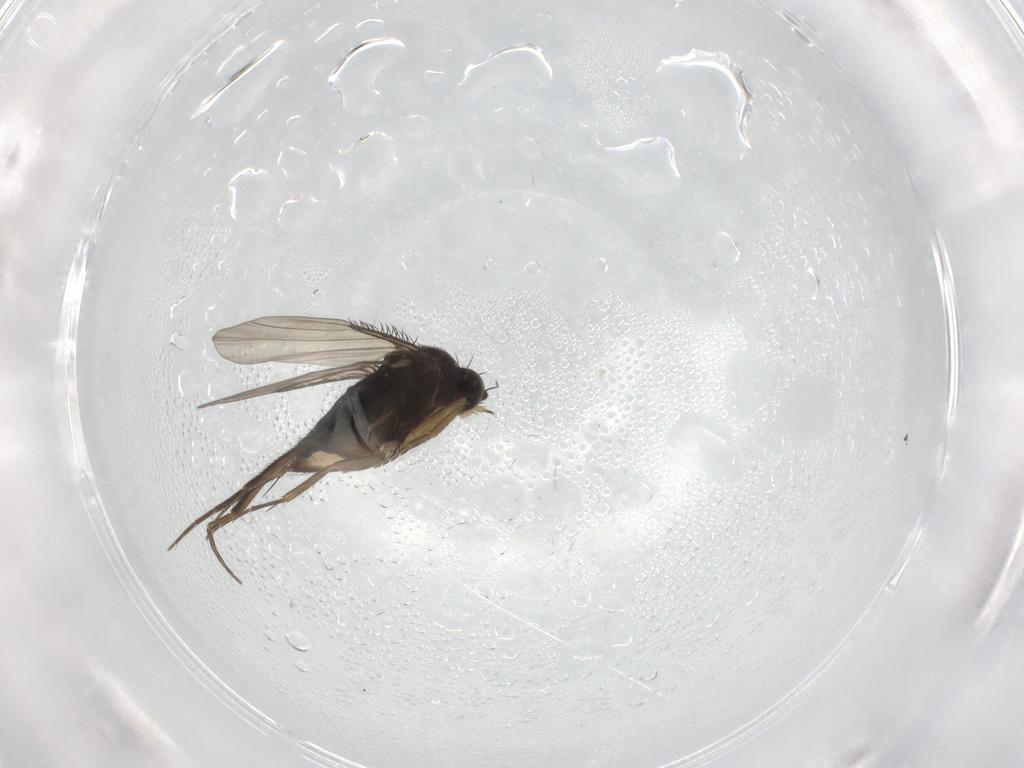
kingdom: Animalia
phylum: Arthropoda
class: Insecta
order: Diptera
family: Phoridae
